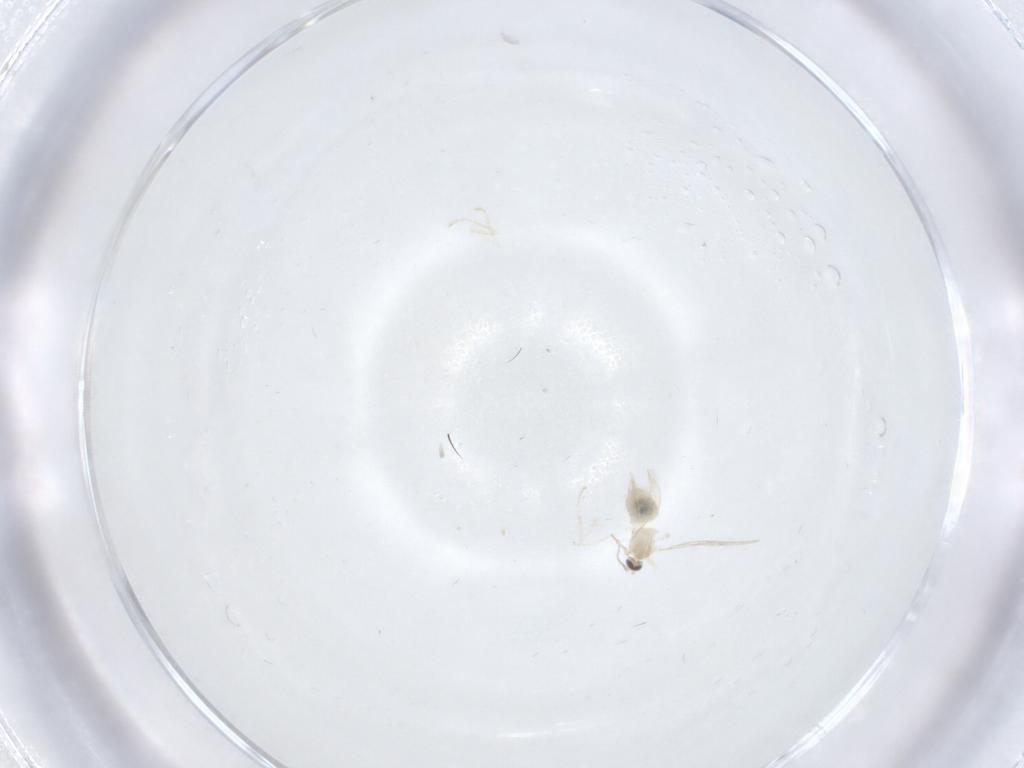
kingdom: Animalia
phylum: Arthropoda
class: Insecta
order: Diptera
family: Cecidomyiidae
